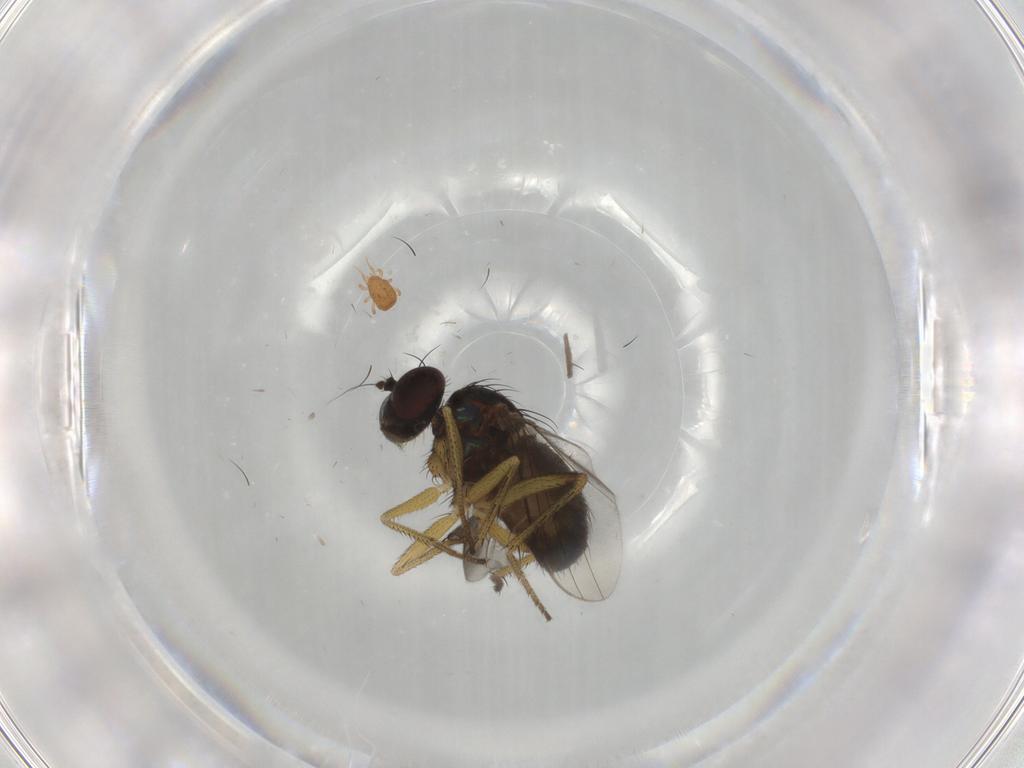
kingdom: Animalia
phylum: Arthropoda
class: Insecta
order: Diptera
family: Dolichopodidae
